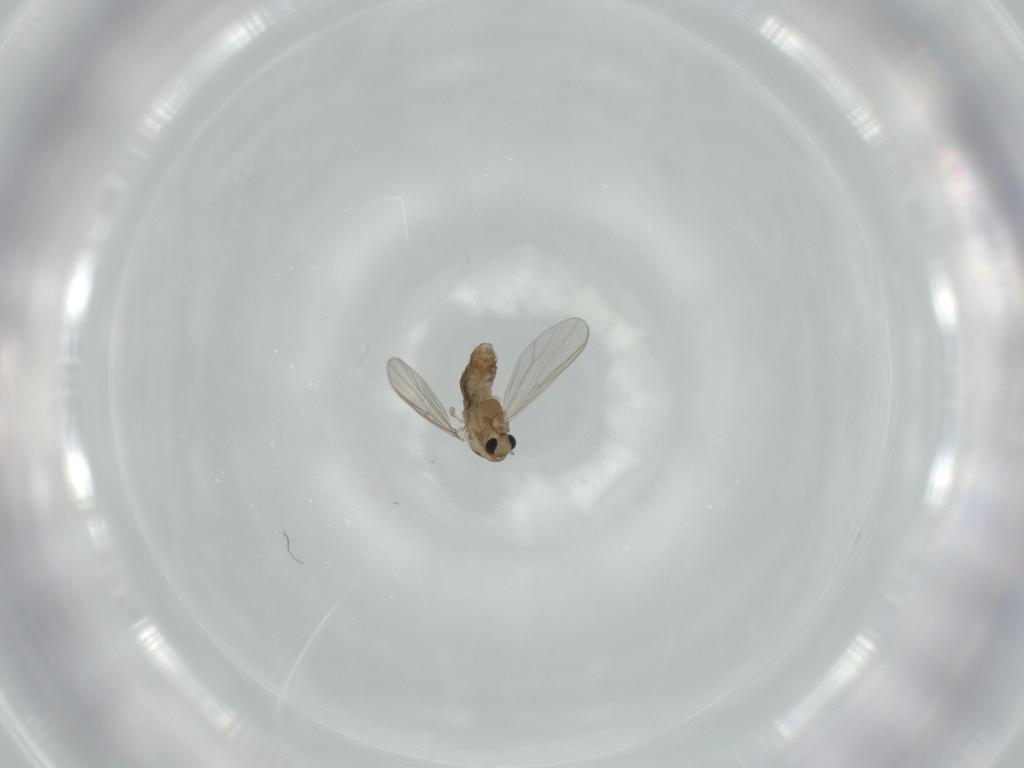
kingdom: Animalia
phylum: Arthropoda
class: Insecta
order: Diptera
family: Chironomidae
